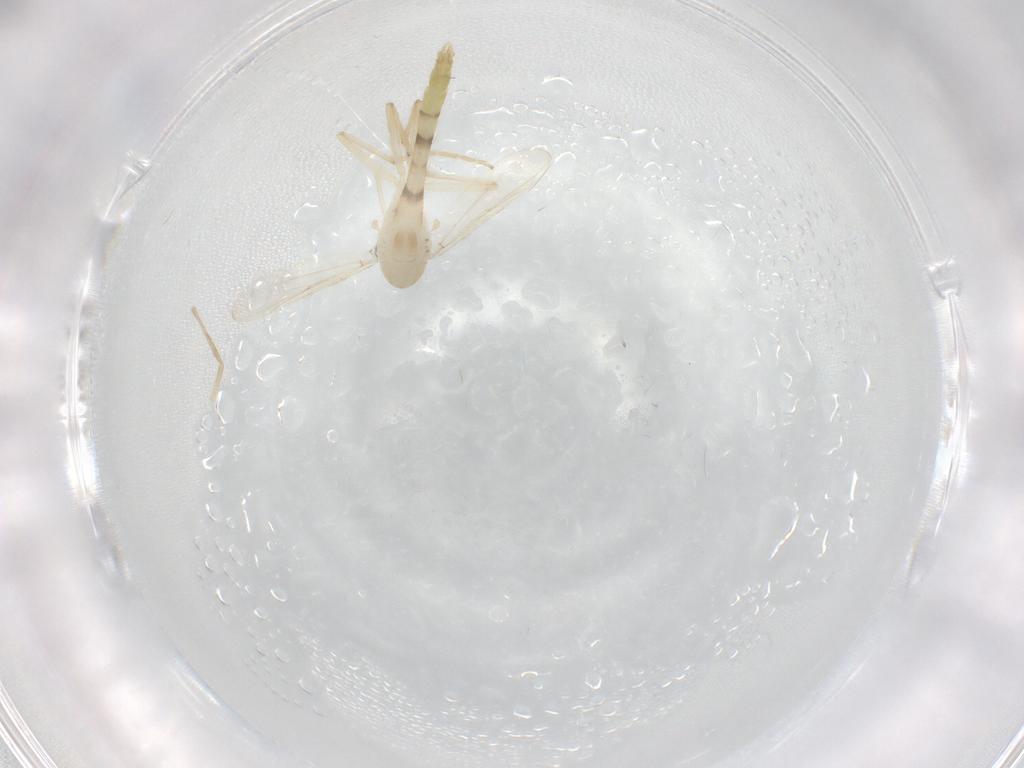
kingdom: Animalia
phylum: Arthropoda
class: Insecta
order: Diptera
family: Chironomidae
